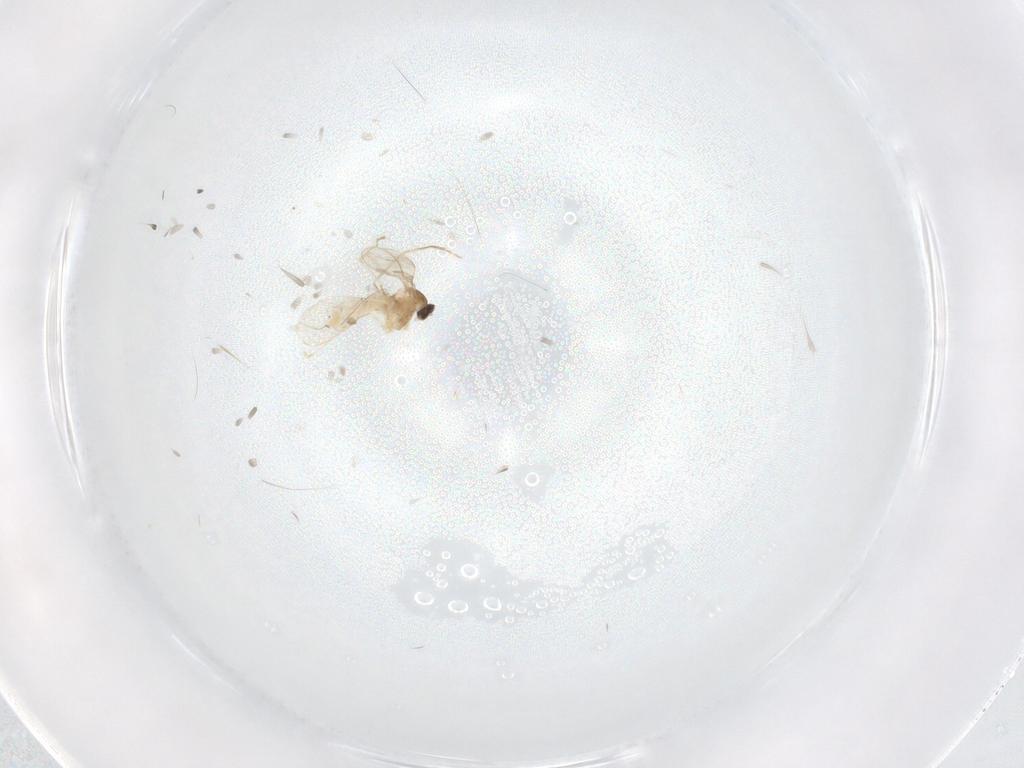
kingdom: Animalia
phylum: Arthropoda
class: Insecta
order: Diptera
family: Cecidomyiidae
